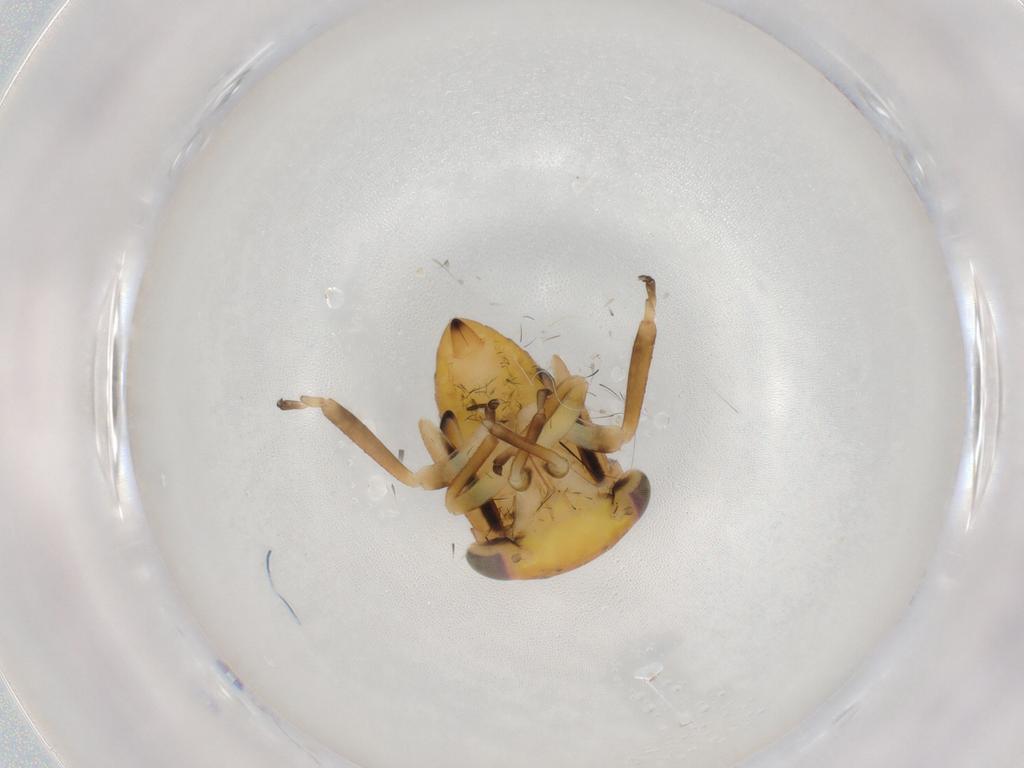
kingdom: Animalia
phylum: Arthropoda
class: Insecta
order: Hemiptera
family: Cicadellidae
